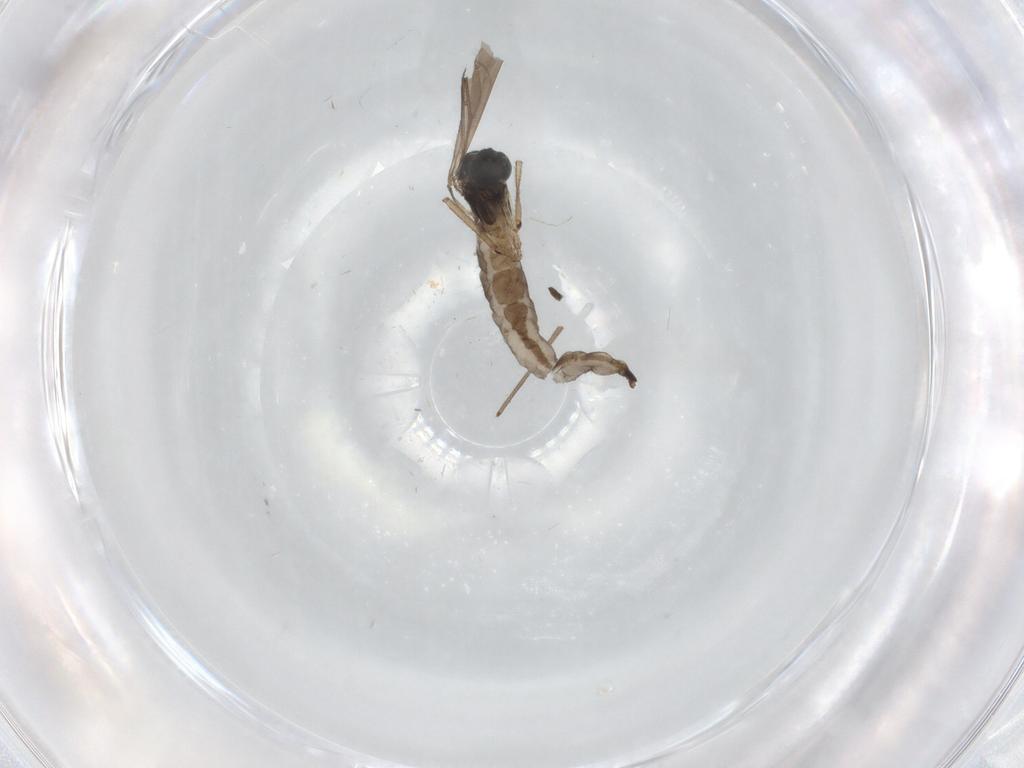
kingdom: Animalia
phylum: Arthropoda
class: Insecta
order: Diptera
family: Sciaridae
